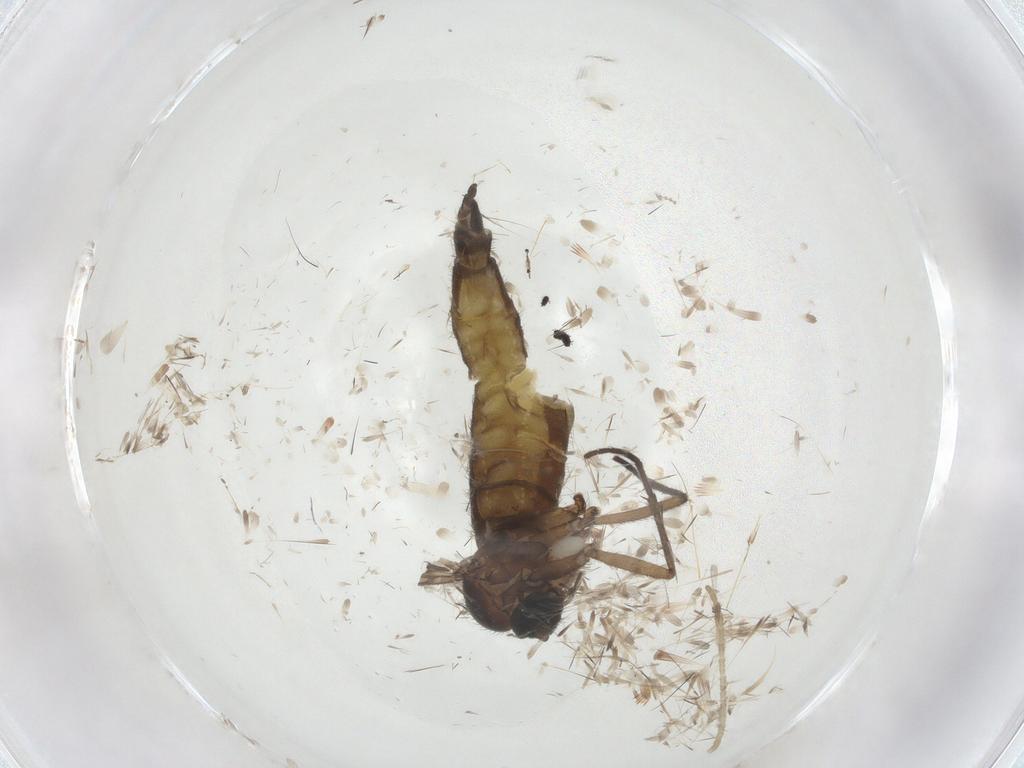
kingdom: Animalia
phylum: Arthropoda
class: Insecta
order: Diptera
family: Sciaridae
